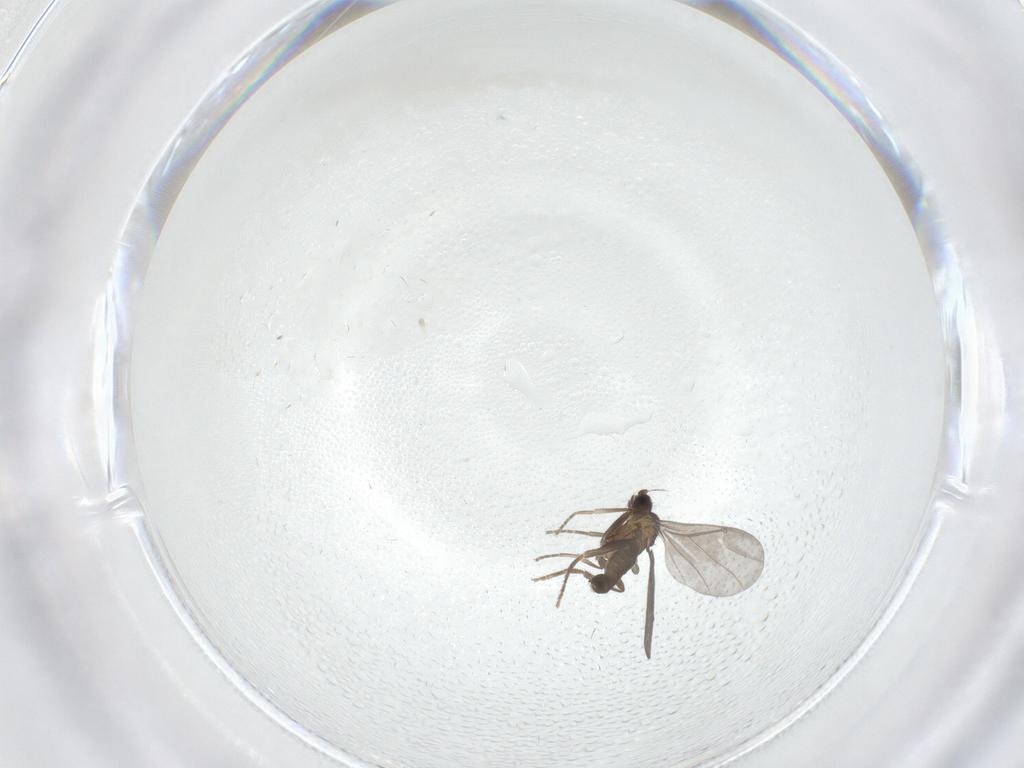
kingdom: Animalia
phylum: Arthropoda
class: Insecta
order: Diptera
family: Phoridae
